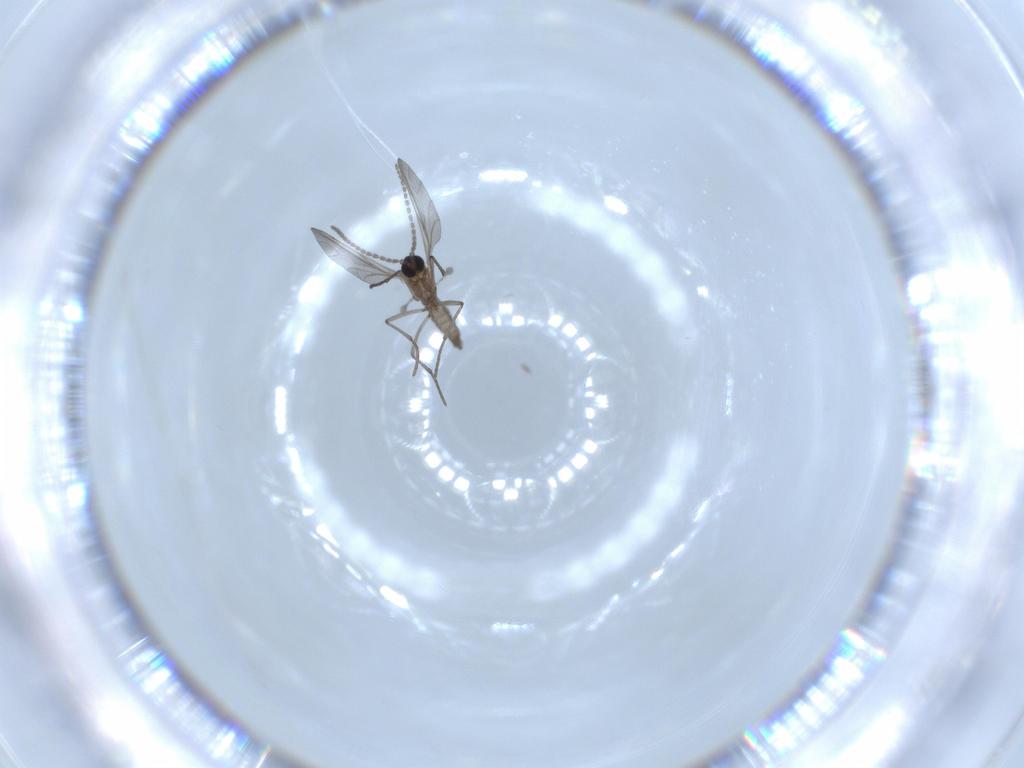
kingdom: Animalia
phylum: Arthropoda
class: Insecta
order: Diptera
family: Sciaridae
